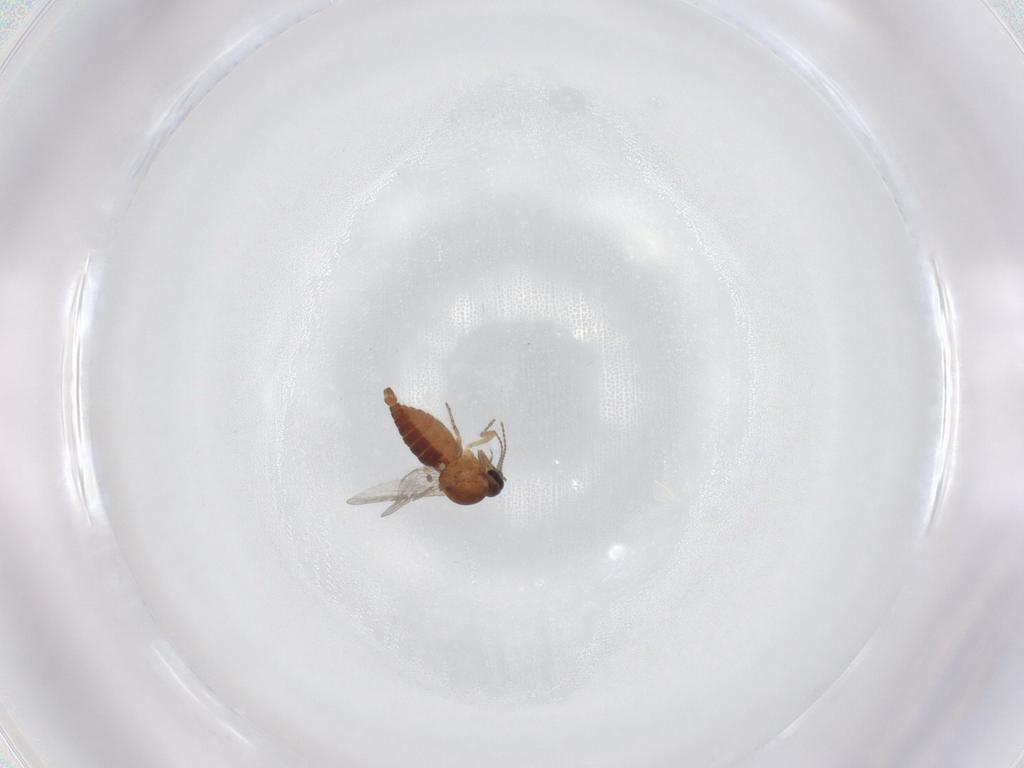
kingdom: Animalia
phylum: Arthropoda
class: Insecta
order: Diptera
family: Ceratopogonidae
